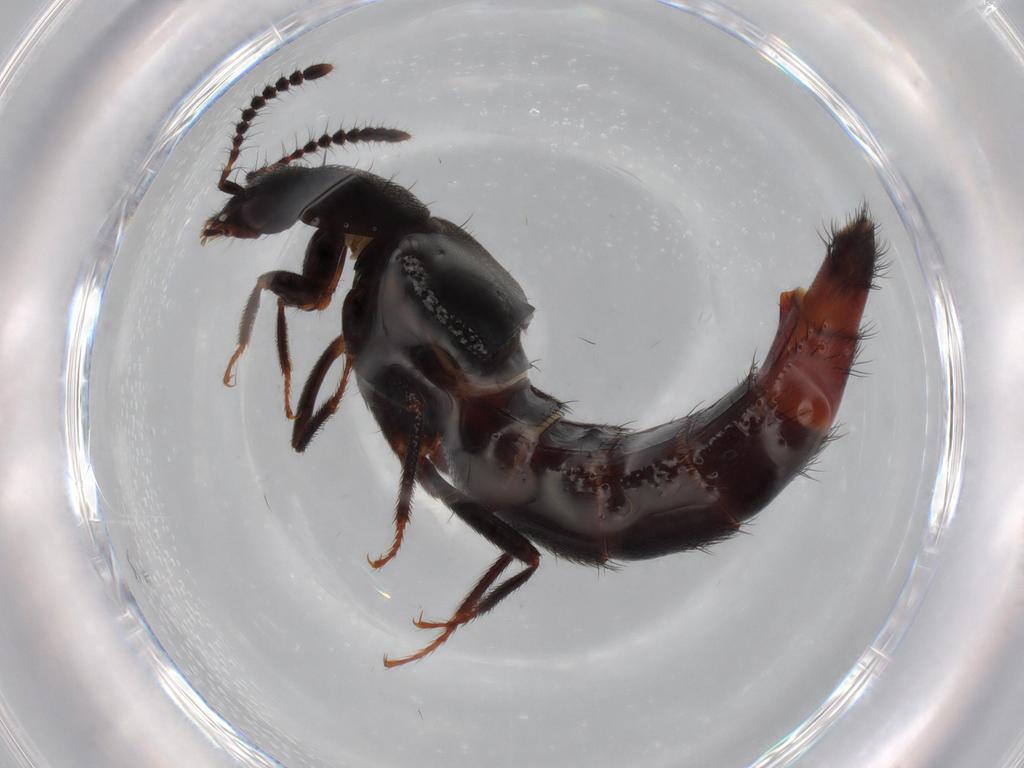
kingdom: Animalia
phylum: Arthropoda
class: Insecta
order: Coleoptera
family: Staphylinidae
